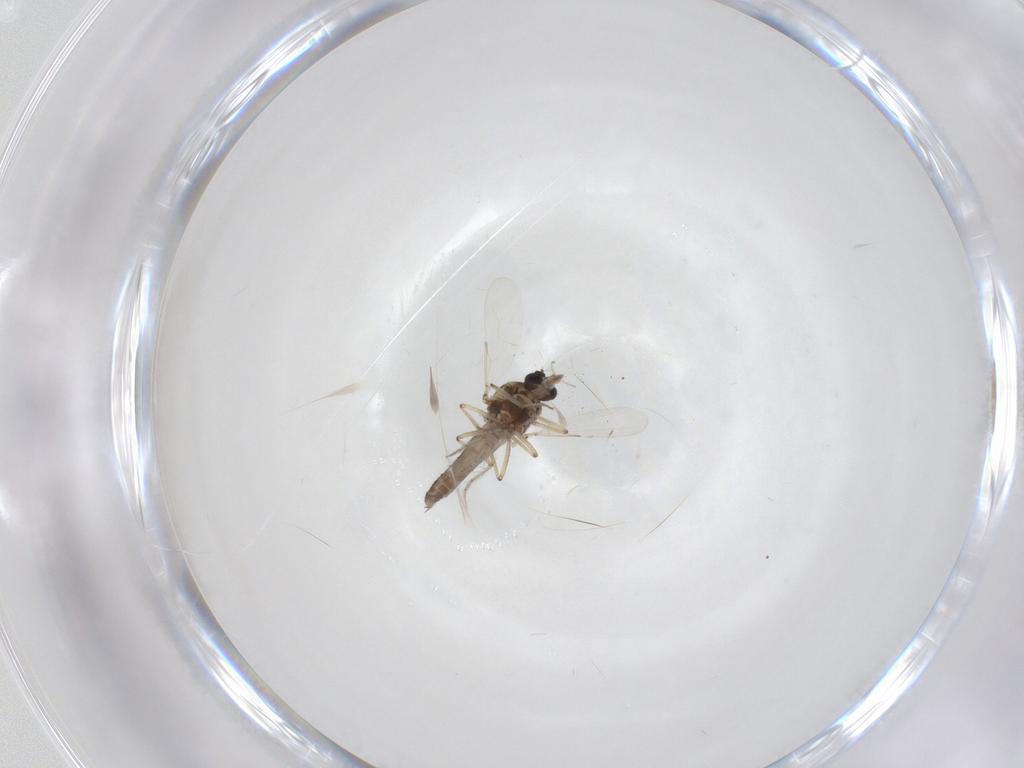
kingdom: Animalia
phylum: Arthropoda
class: Insecta
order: Diptera
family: Ceratopogonidae
